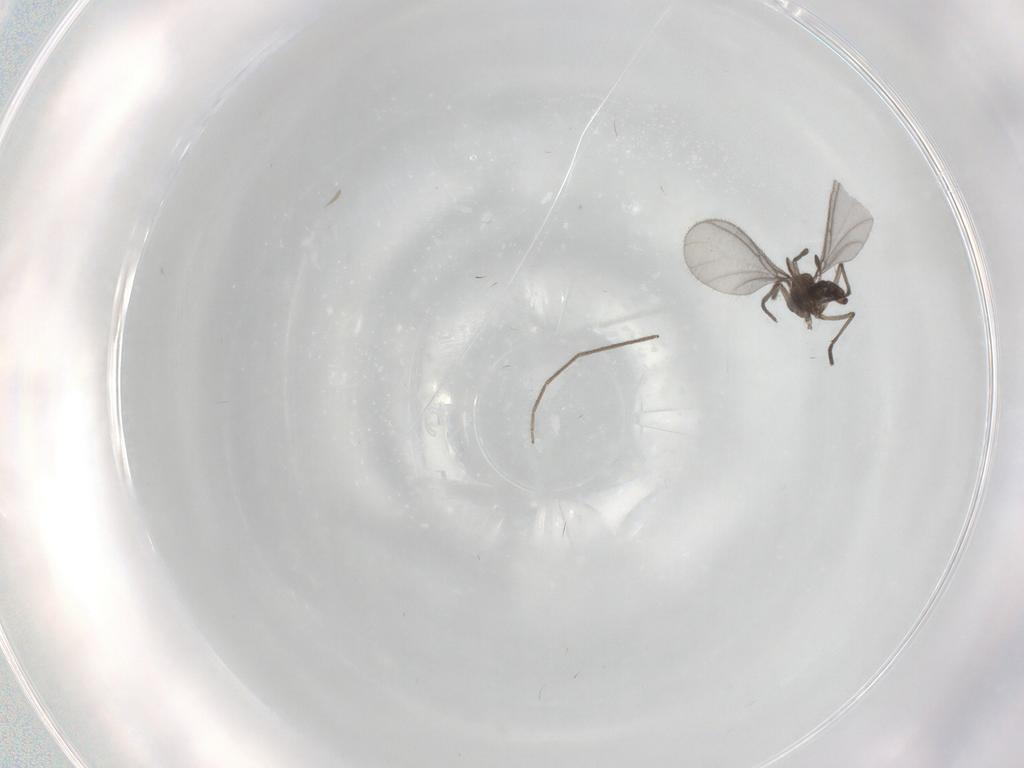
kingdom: Animalia
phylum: Arthropoda
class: Insecta
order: Diptera
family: Sciaridae
